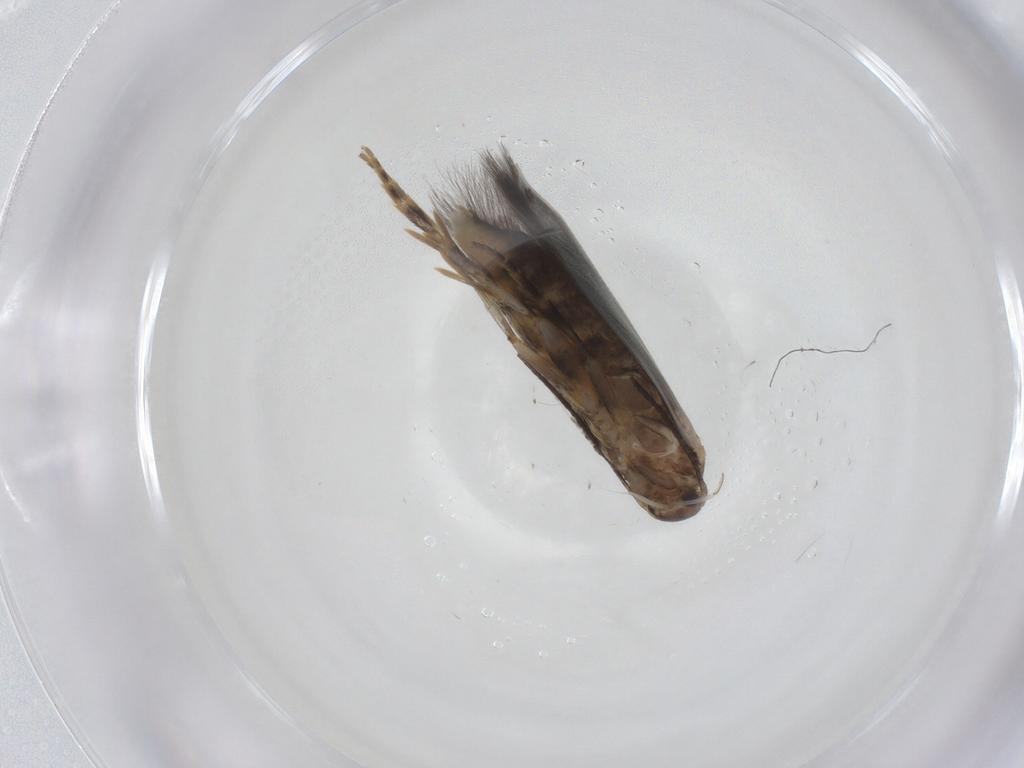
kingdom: Animalia
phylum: Arthropoda
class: Insecta
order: Lepidoptera
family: Elachistidae
